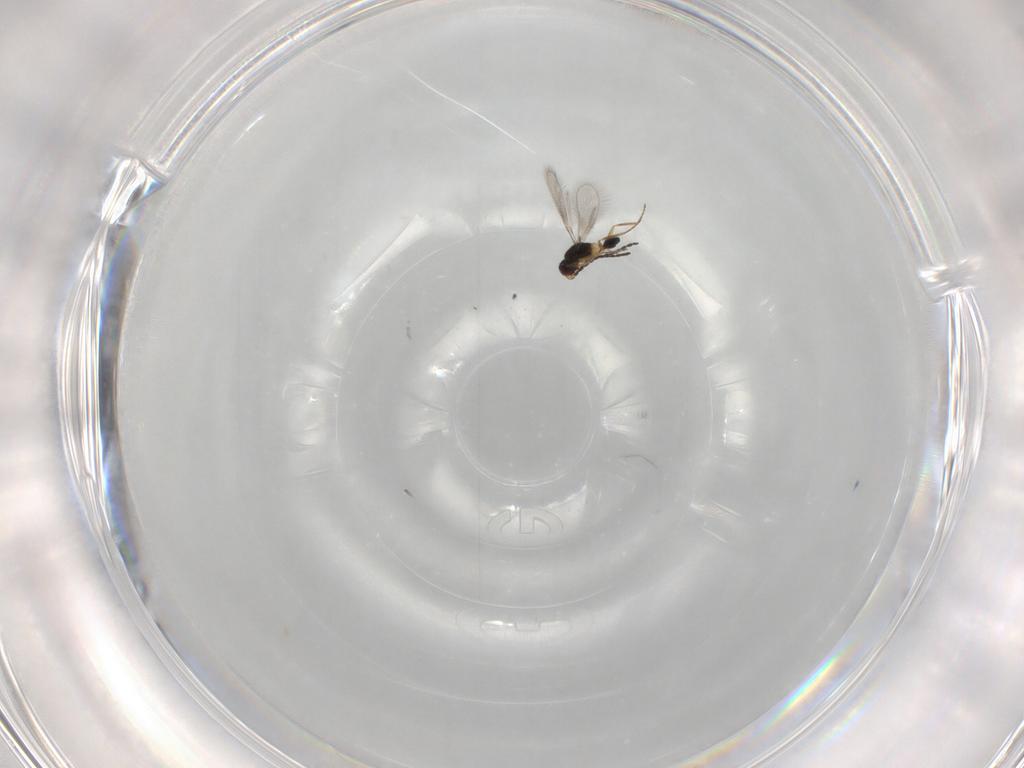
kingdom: Animalia
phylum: Arthropoda
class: Insecta
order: Hymenoptera
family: Mymaridae
